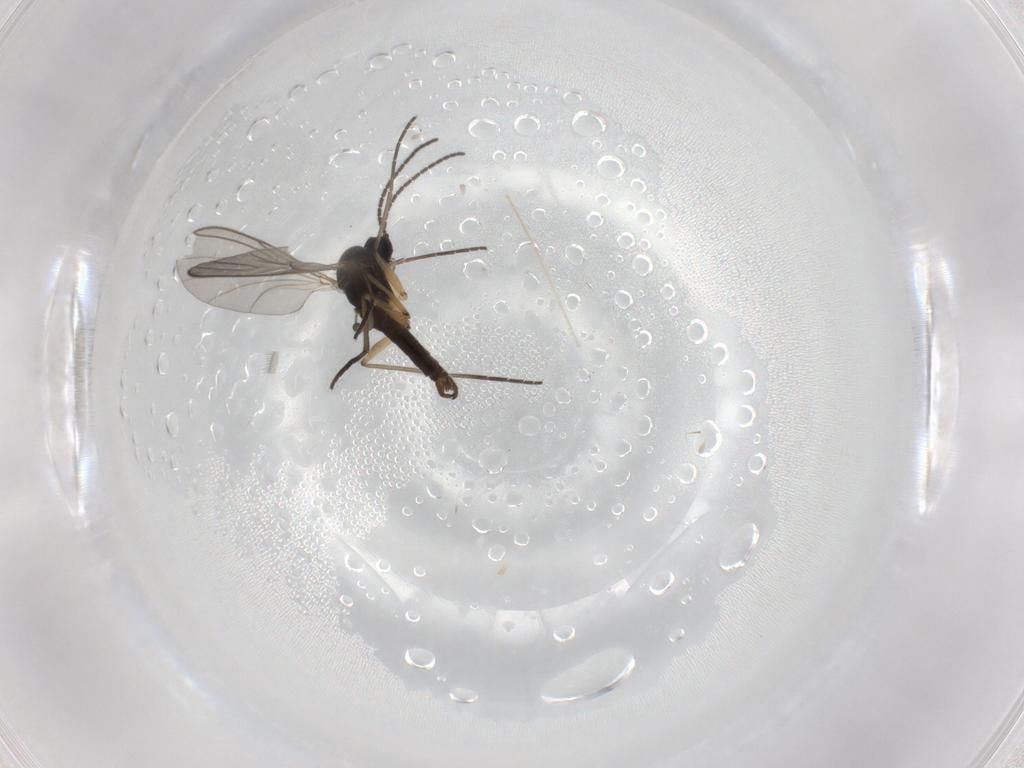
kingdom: Animalia
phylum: Arthropoda
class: Insecta
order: Diptera
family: Sciaridae
